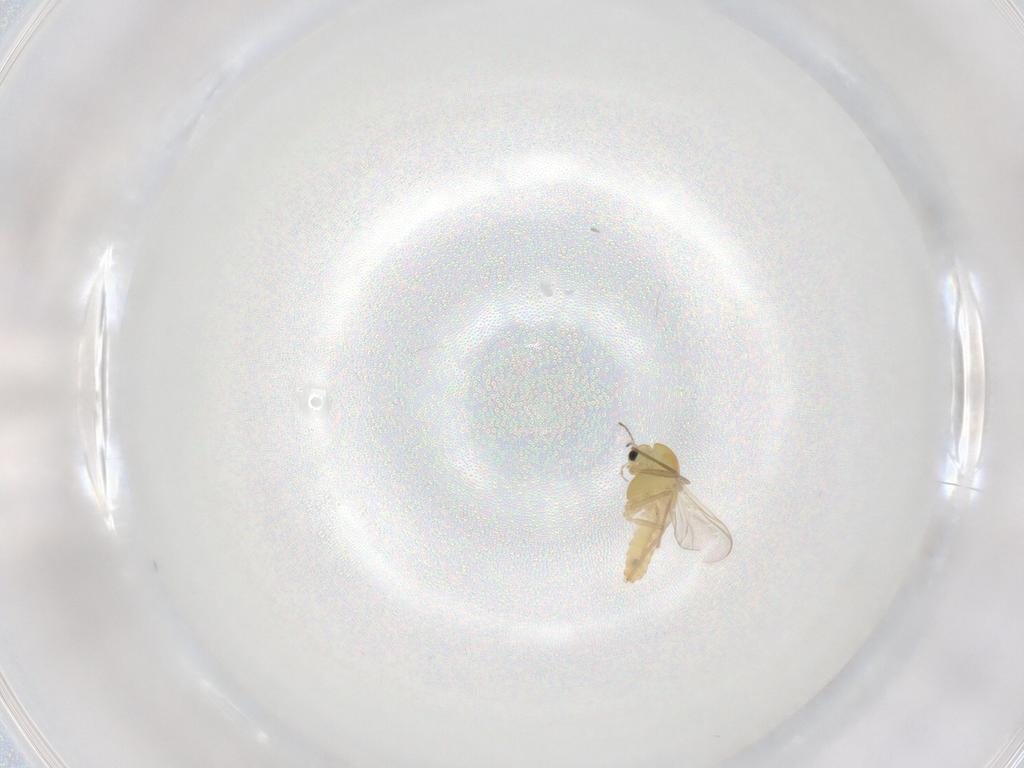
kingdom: Animalia
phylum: Arthropoda
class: Insecta
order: Diptera
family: Chironomidae
